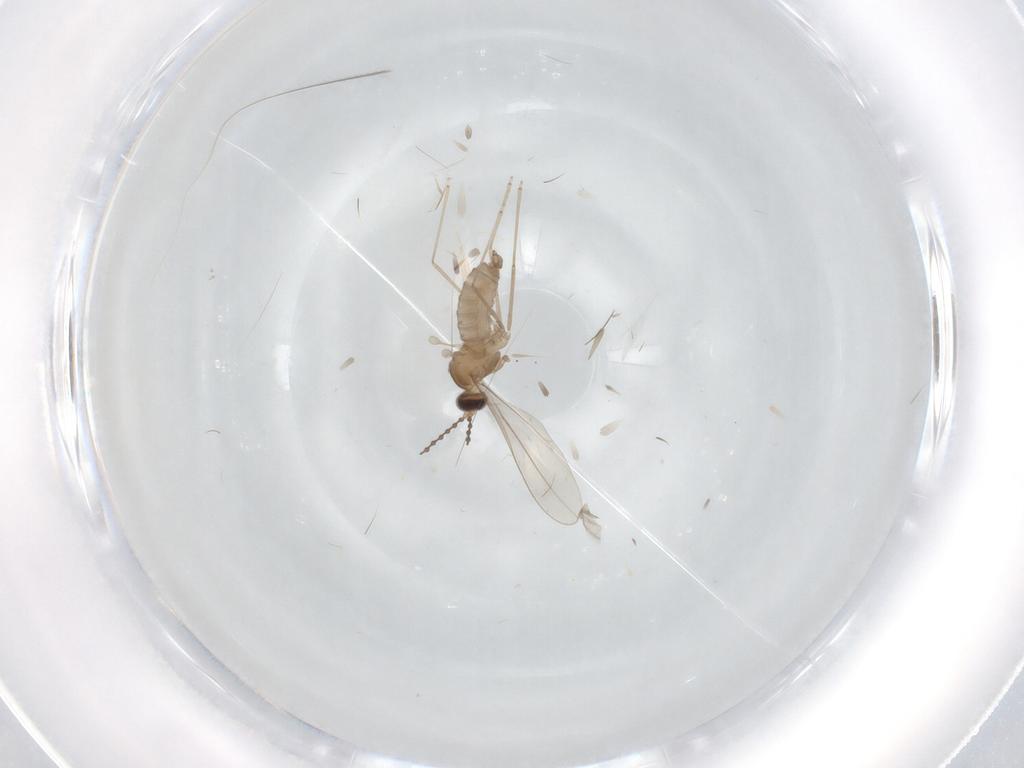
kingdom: Animalia
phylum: Arthropoda
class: Insecta
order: Diptera
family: Cecidomyiidae
